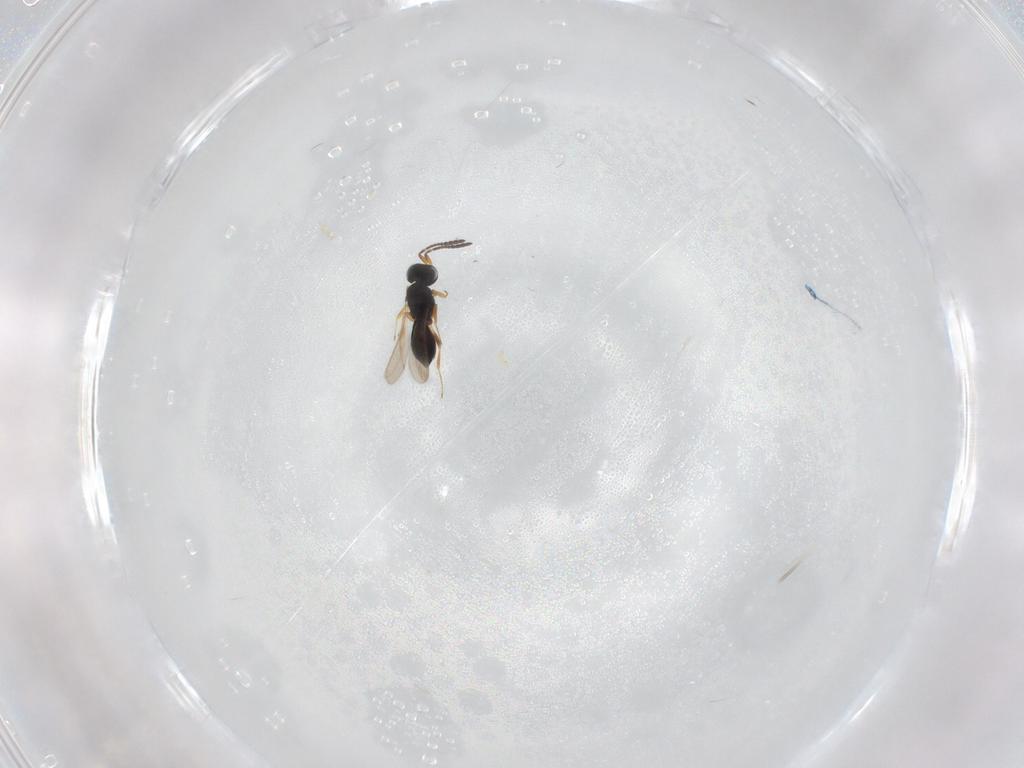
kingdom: Animalia
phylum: Arthropoda
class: Insecta
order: Hymenoptera
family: Scelionidae
